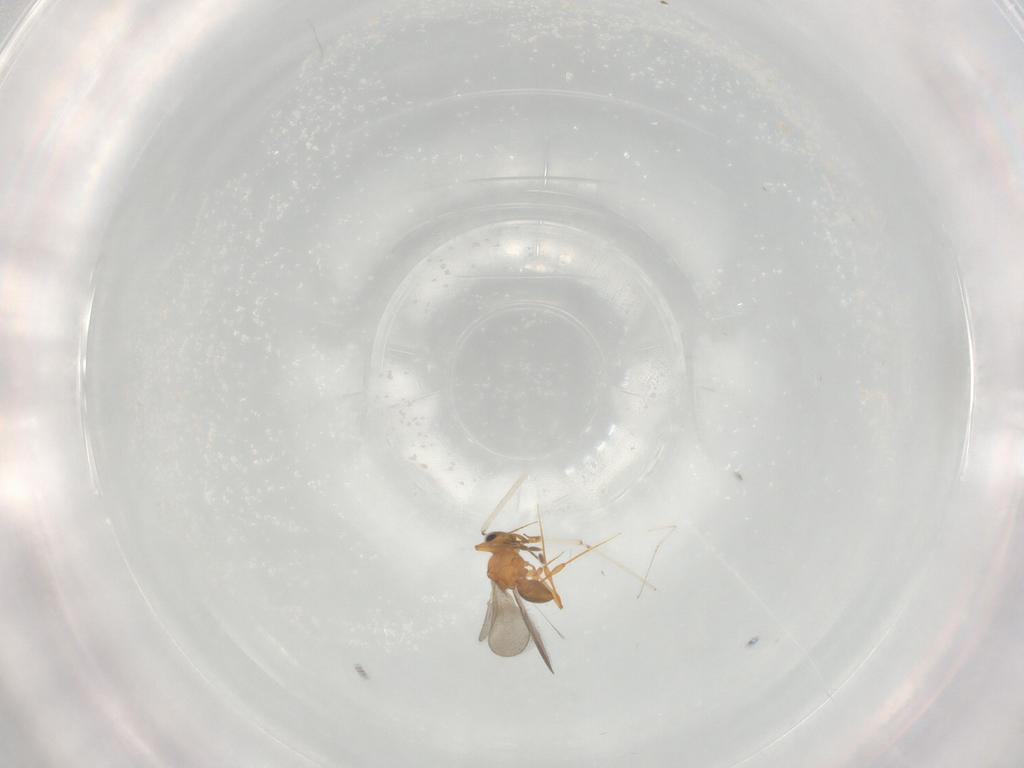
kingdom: Animalia
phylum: Arthropoda
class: Insecta
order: Hymenoptera
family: Platygastridae
